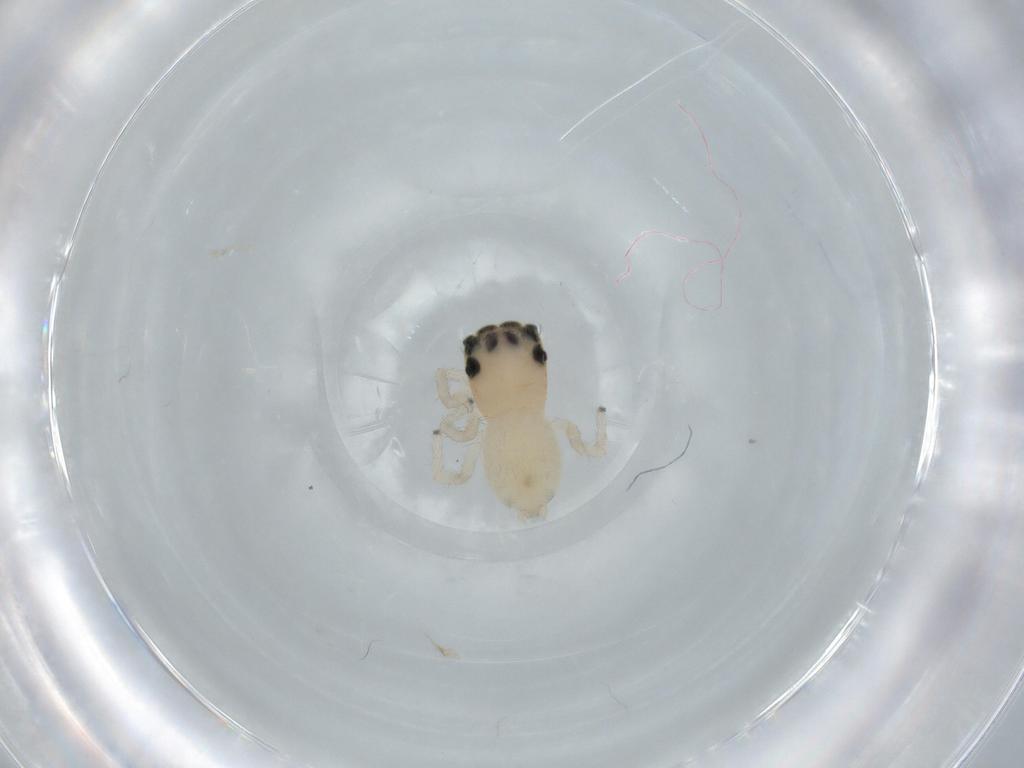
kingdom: Animalia
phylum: Arthropoda
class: Arachnida
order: Araneae
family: Salticidae
